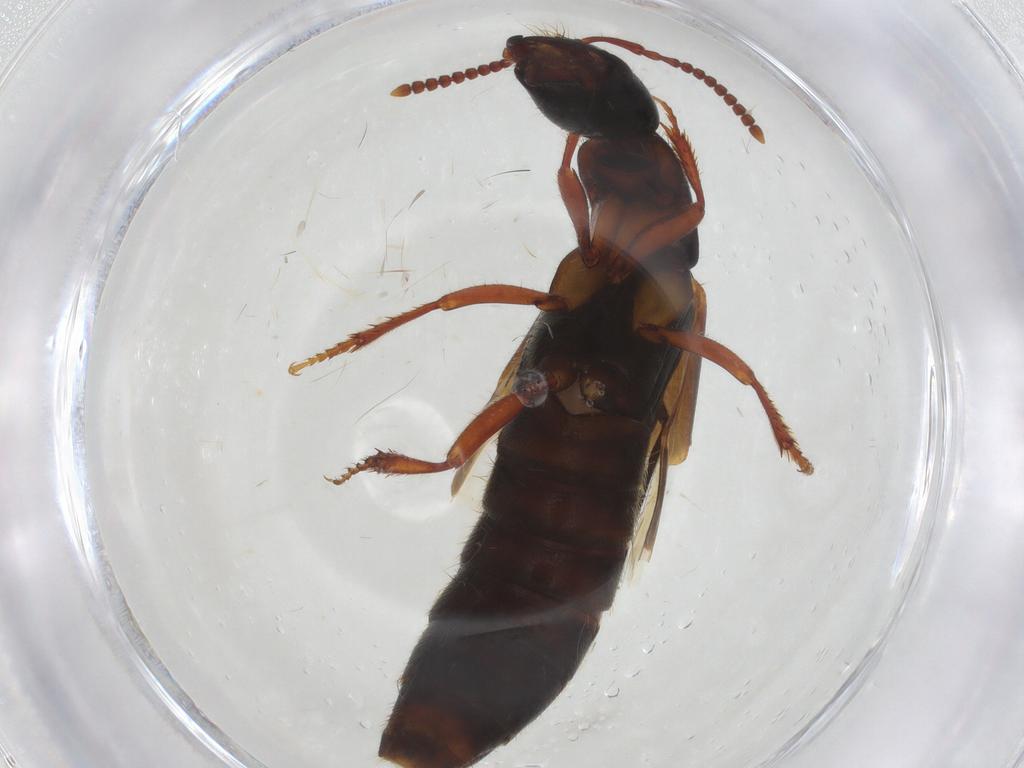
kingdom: Animalia
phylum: Arthropoda
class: Insecta
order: Coleoptera
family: Staphylinidae
